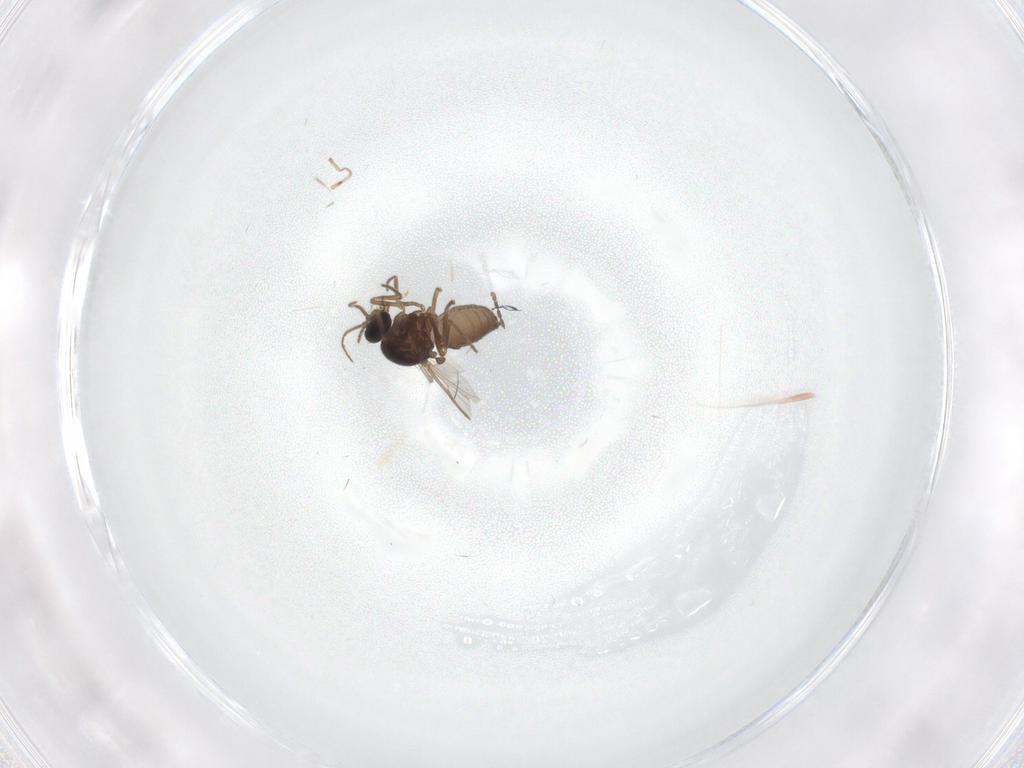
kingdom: Animalia
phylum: Arthropoda
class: Insecta
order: Diptera
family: Ceratopogonidae
